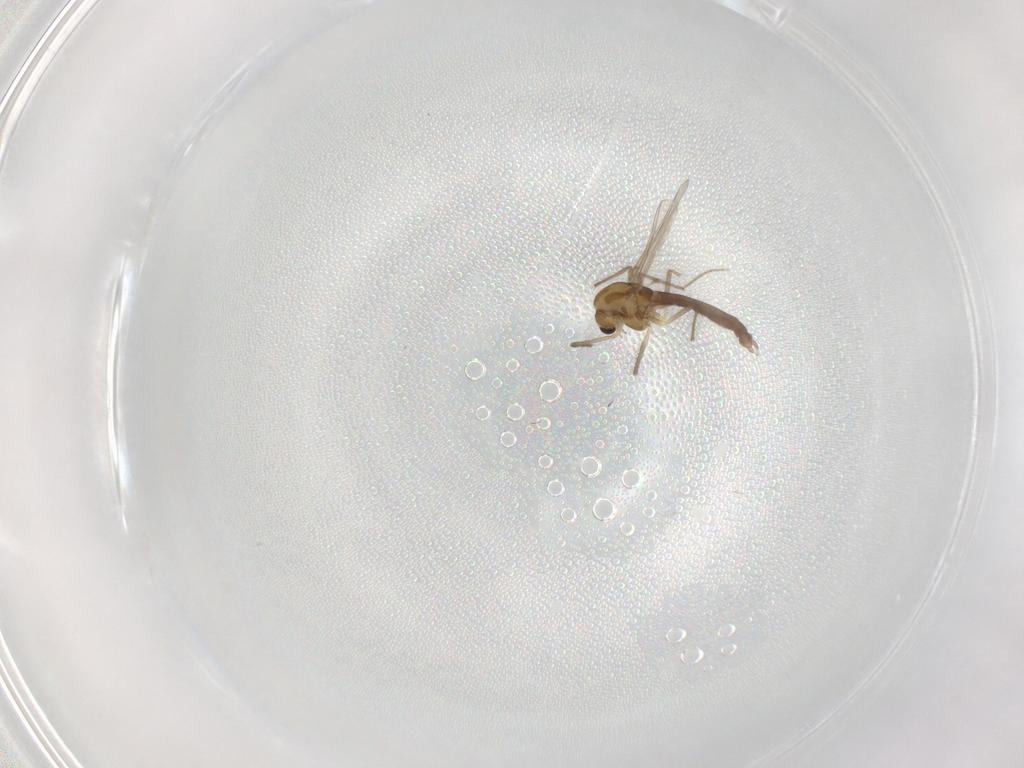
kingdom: Animalia
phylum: Arthropoda
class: Insecta
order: Diptera
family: Chironomidae
